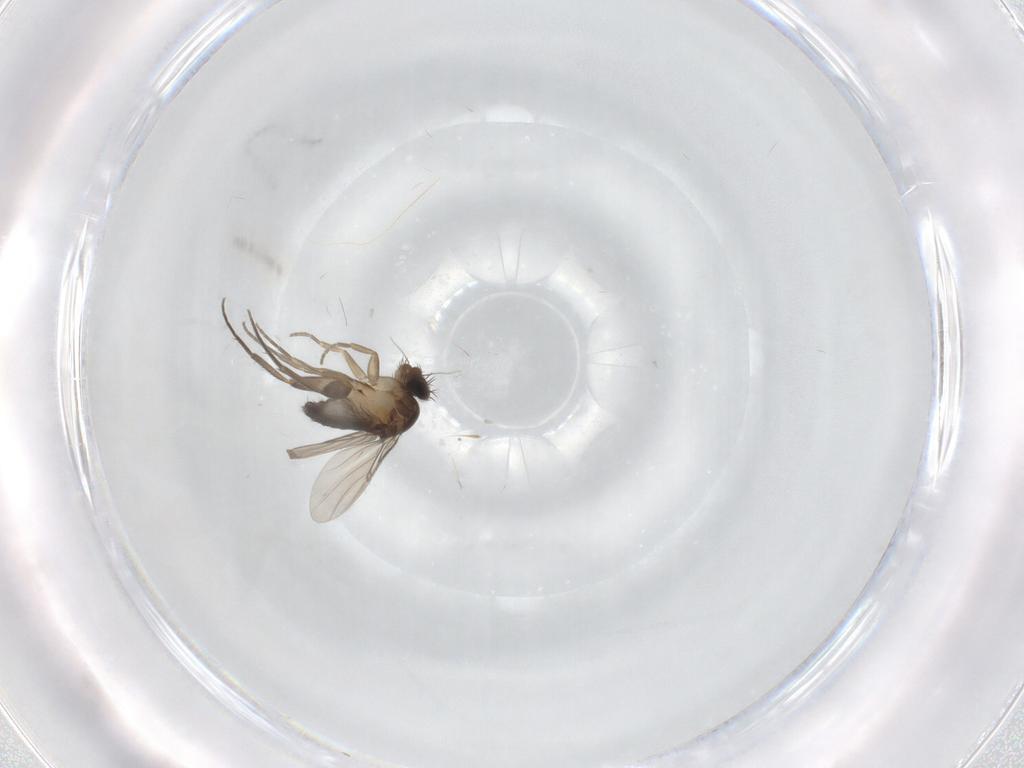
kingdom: Animalia
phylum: Arthropoda
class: Insecta
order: Diptera
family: Phoridae
